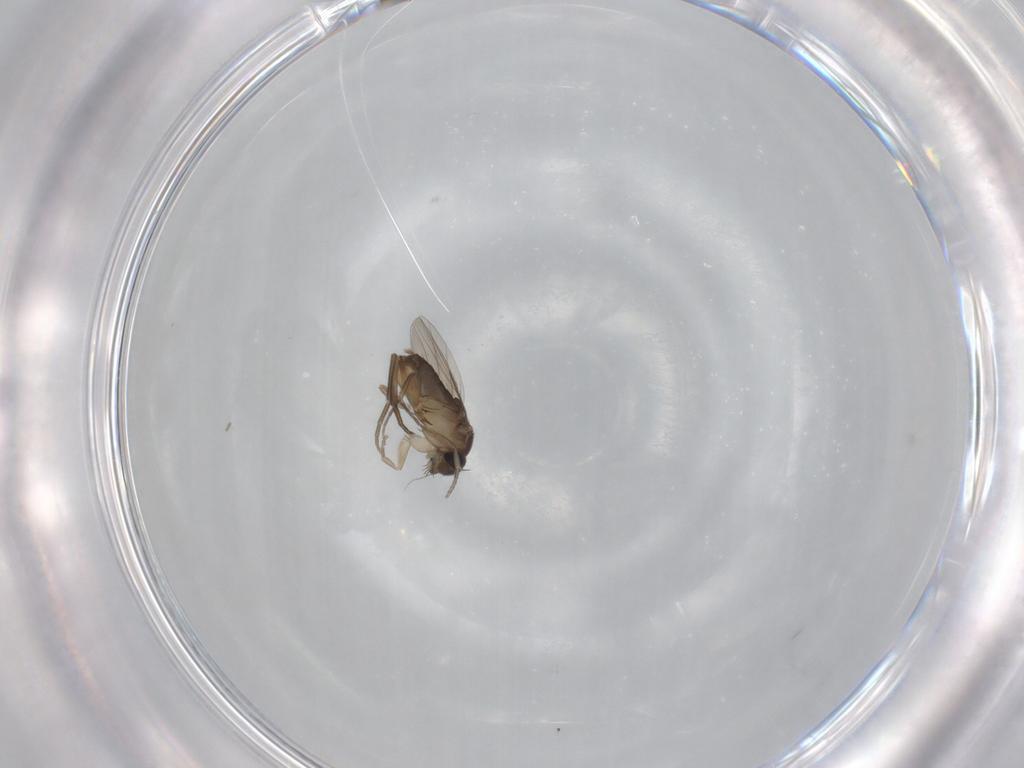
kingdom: Animalia
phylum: Arthropoda
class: Insecta
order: Diptera
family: Phoridae
